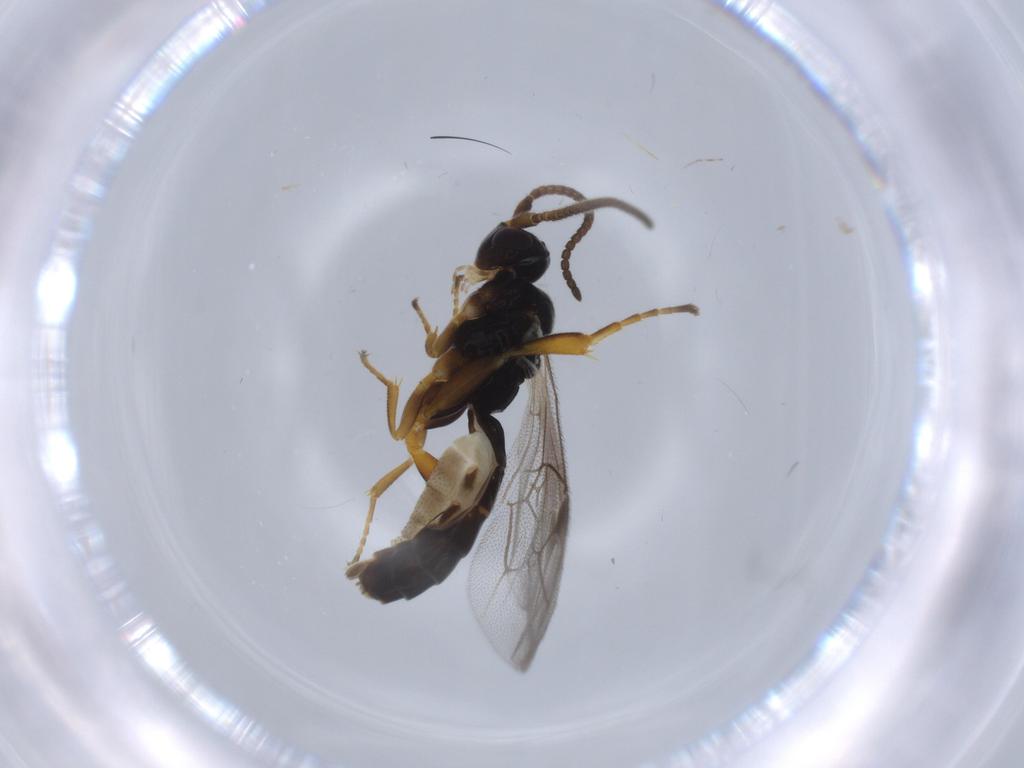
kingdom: Animalia
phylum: Arthropoda
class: Insecta
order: Hymenoptera
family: Ichneumonidae
